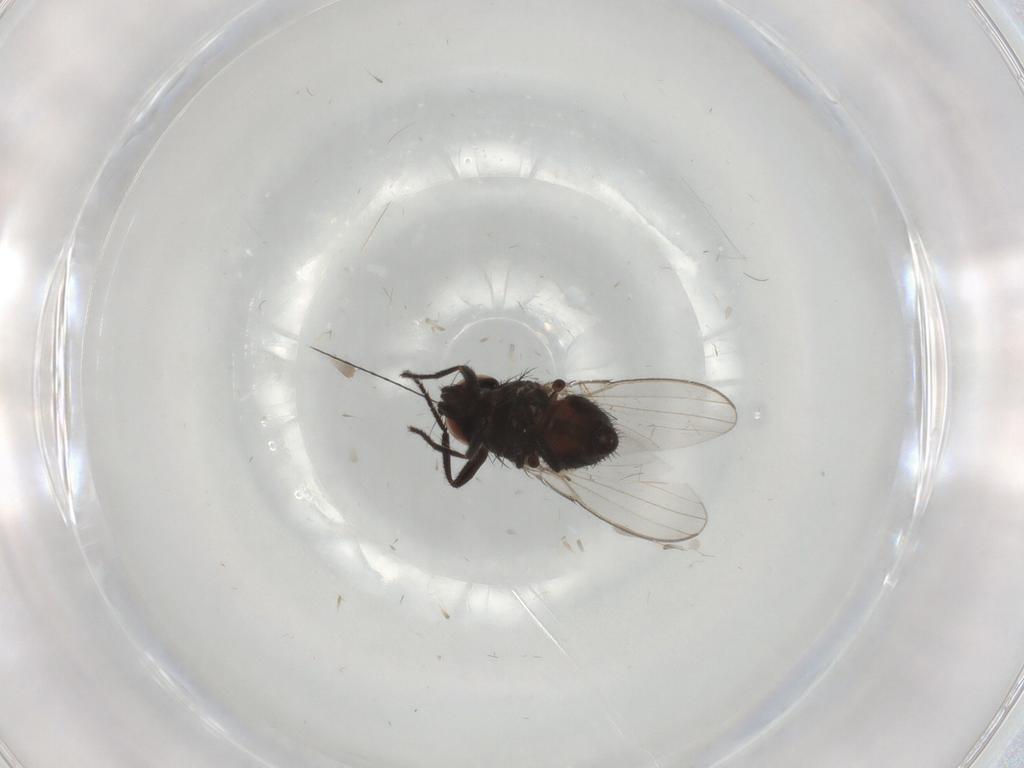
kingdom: Animalia
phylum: Arthropoda
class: Insecta
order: Diptera
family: Milichiidae
